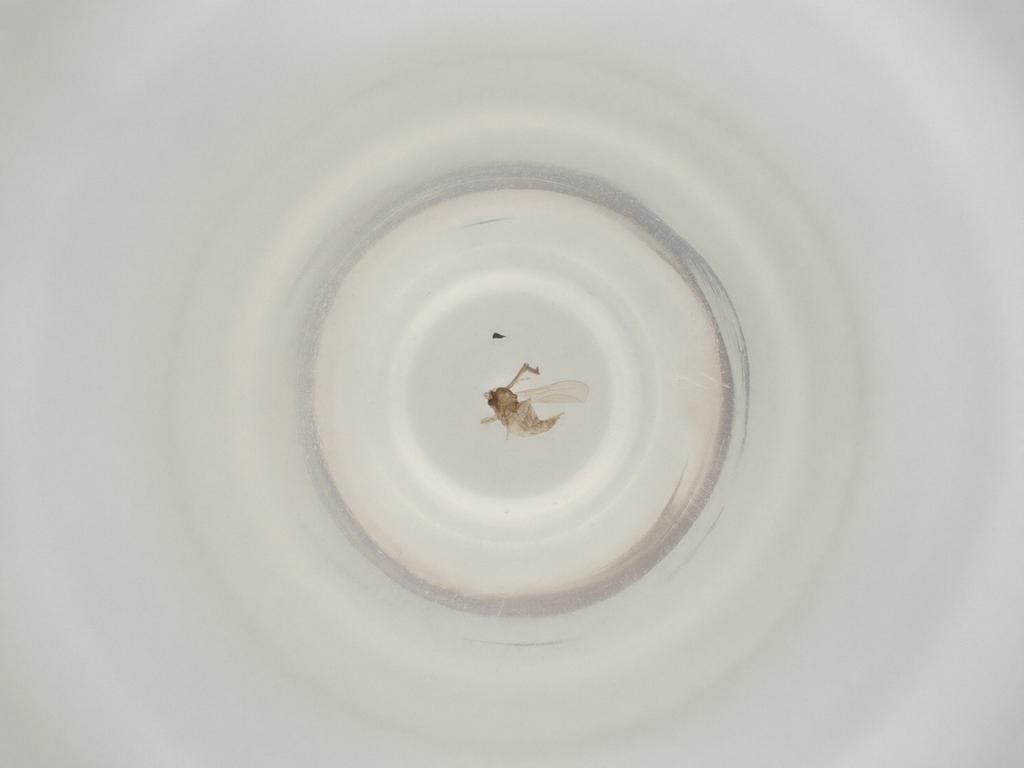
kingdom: Animalia
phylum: Arthropoda
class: Insecta
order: Diptera
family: Cecidomyiidae
